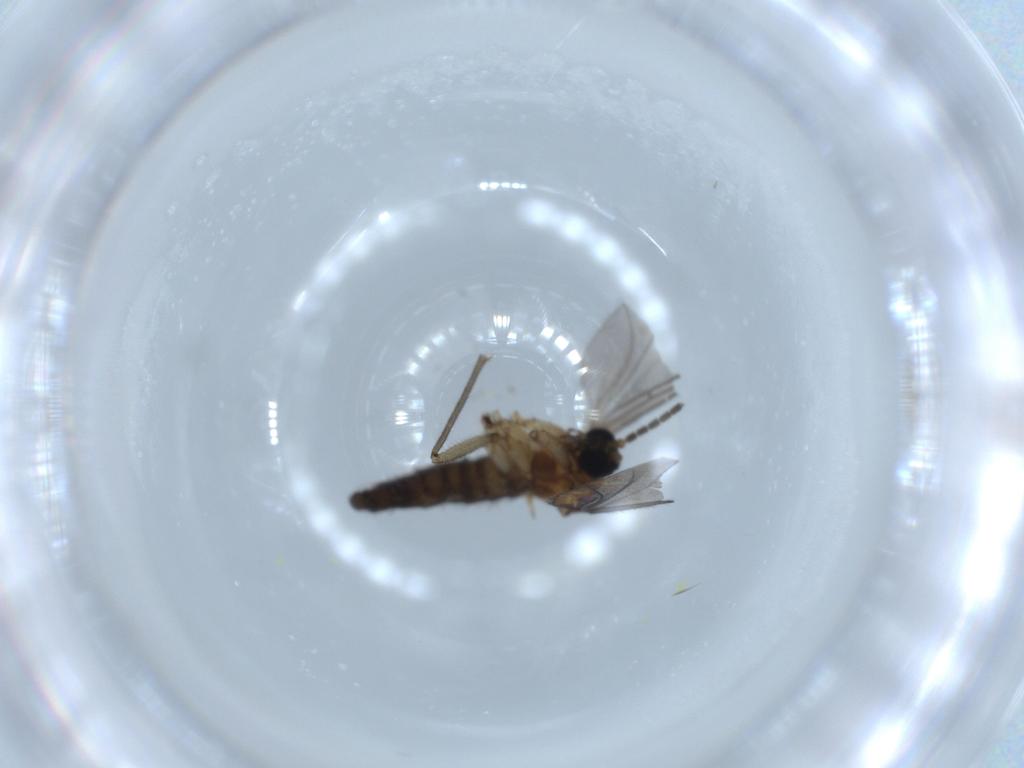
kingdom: Animalia
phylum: Arthropoda
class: Insecta
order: Diptera
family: Sciaridae
